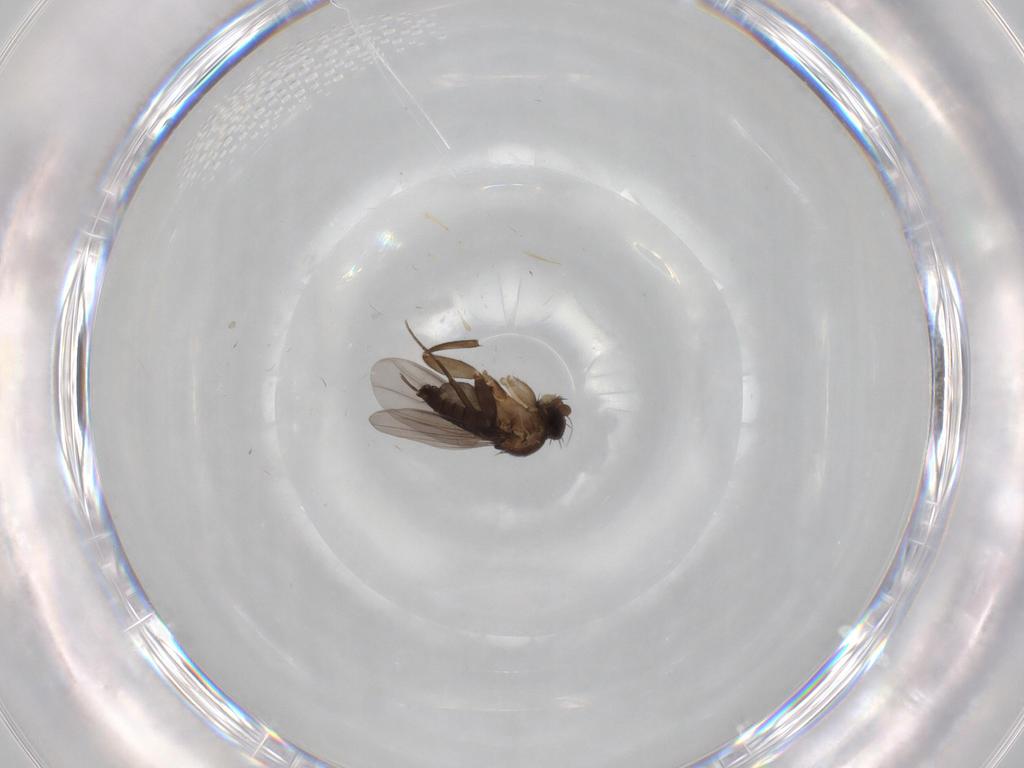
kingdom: Animalia
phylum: Arthropoda
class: Insecta
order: Diptera
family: Phoridae
